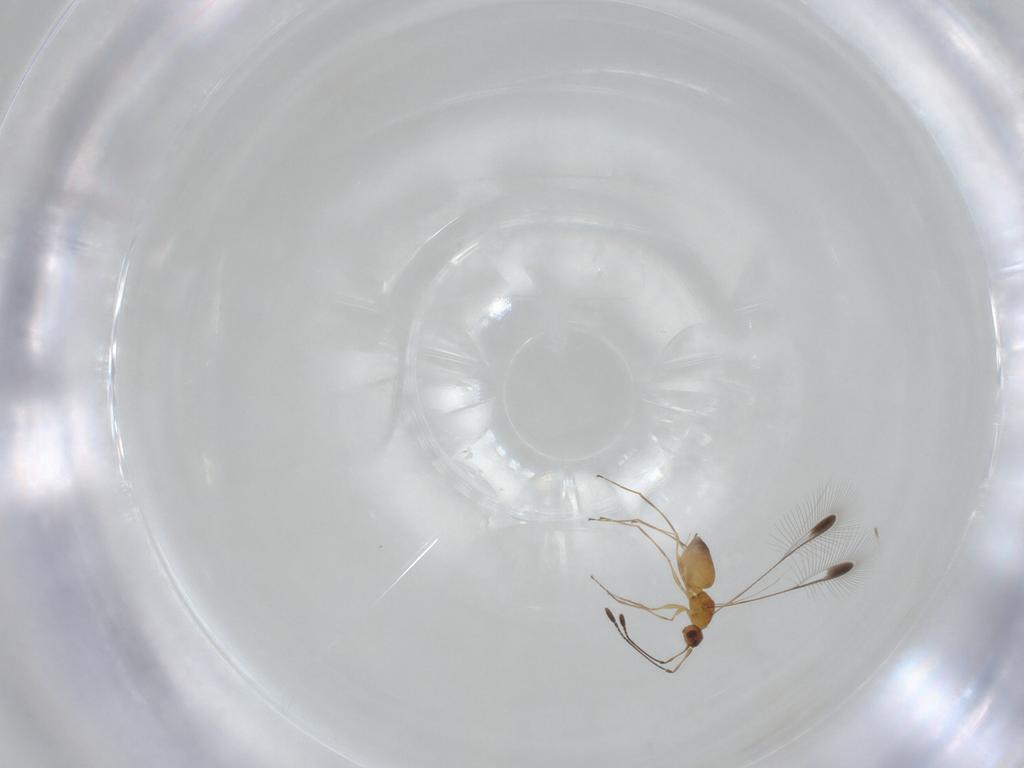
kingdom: Animalia
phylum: Arthropoda
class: Insecta
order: Hymenoptera
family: Mymaridae
